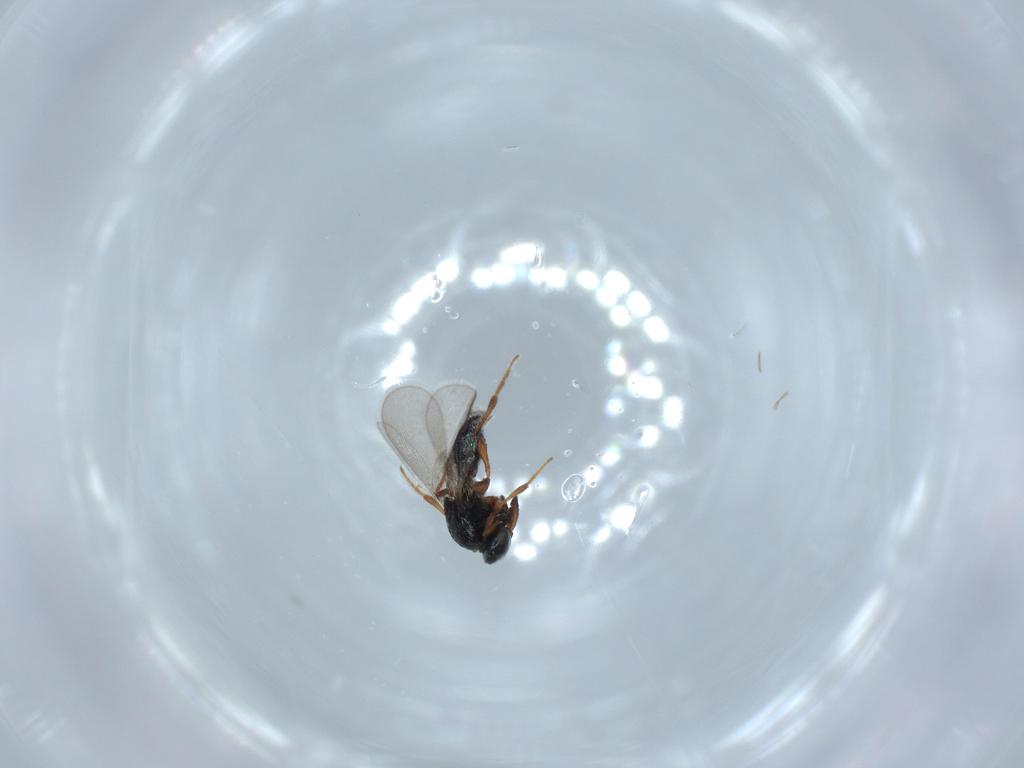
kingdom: Animalia
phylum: Arthropoda
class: Insecta
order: Hymenoptera
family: Platygastridae
